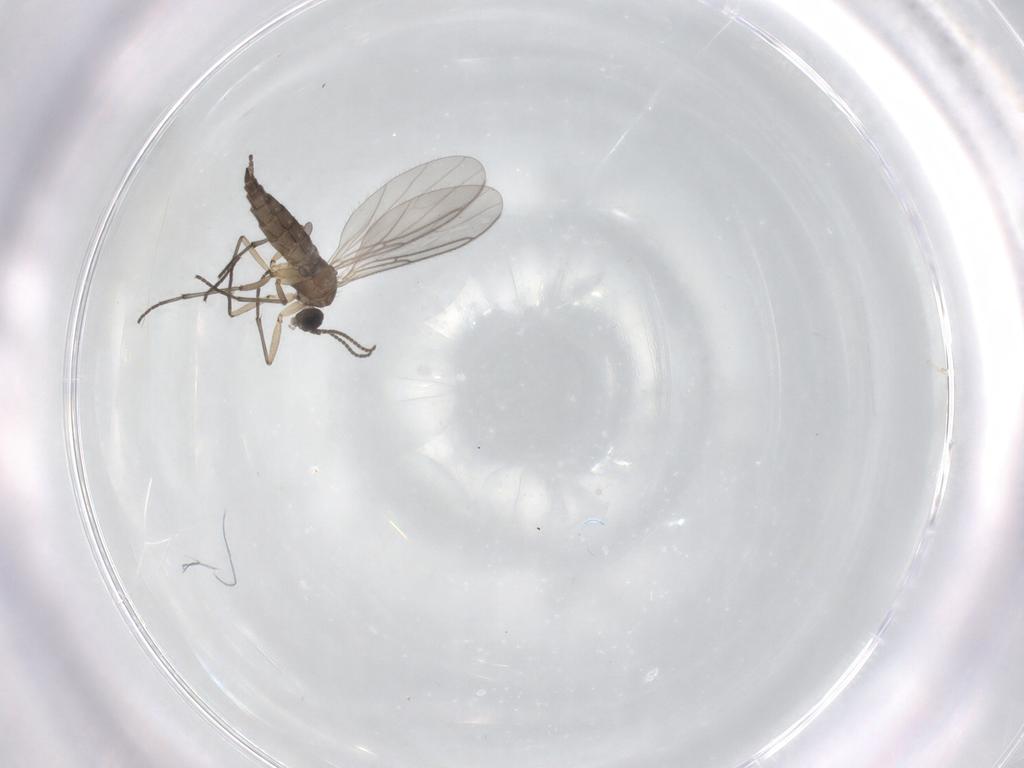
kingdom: Animalia
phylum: Arthropoda
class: Insecta
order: Diptera
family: Sciaridae
